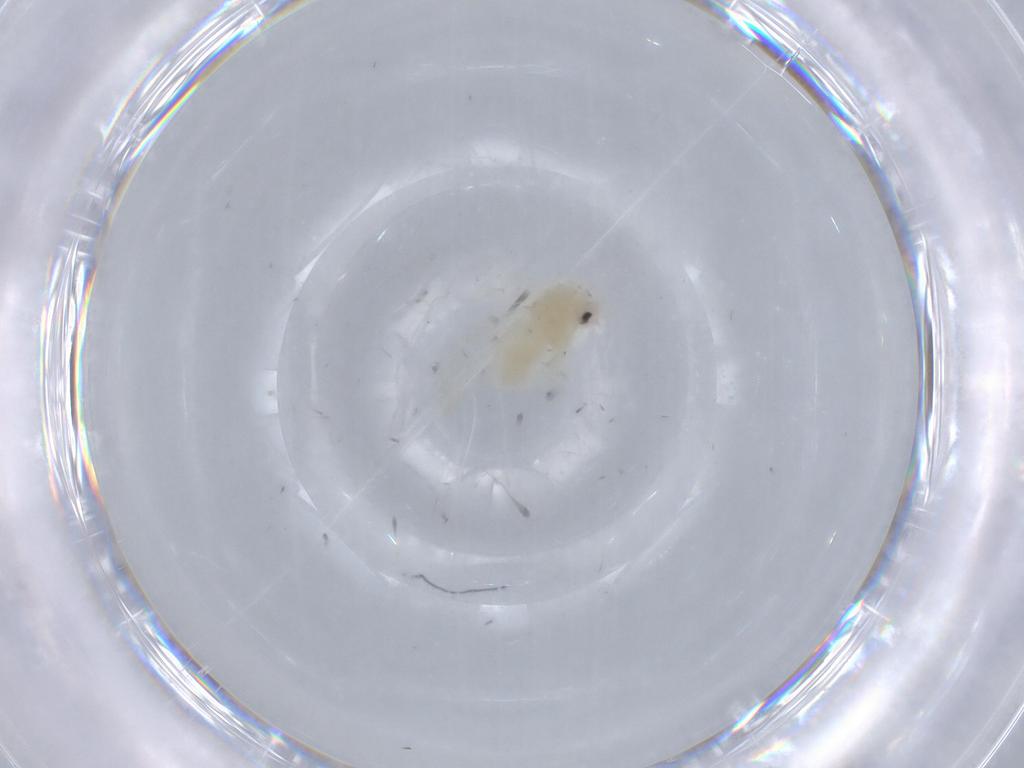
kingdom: Animalia
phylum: Arthropoda
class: Insecta
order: Hemiptera
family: Aleyrodidae
